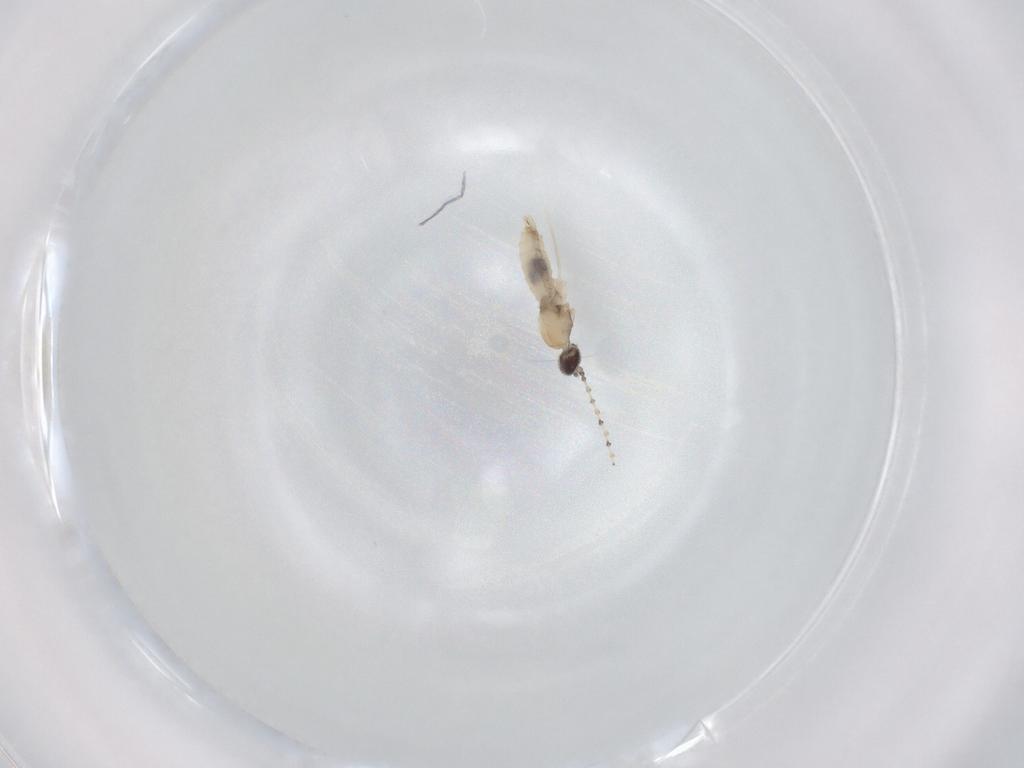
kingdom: Animalia
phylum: Arthropoda
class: Insecta
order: Diptera
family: Cecidomyiidae
